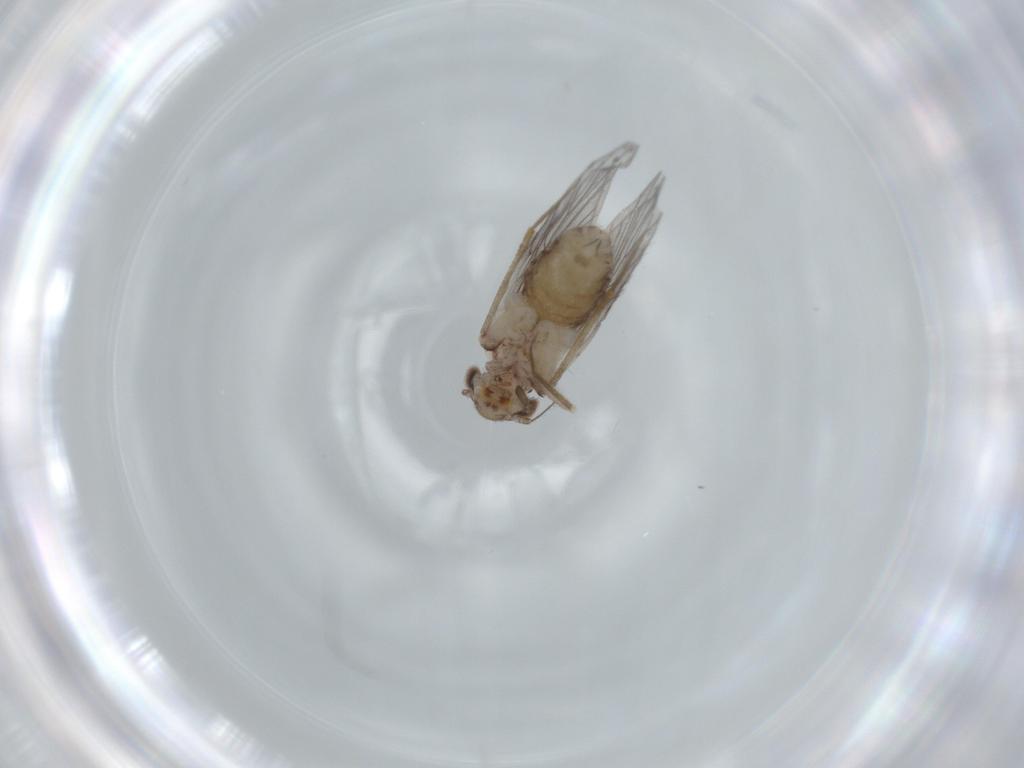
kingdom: Animalia
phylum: Arthropoda
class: Insecta
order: Psocodea
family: Lepidopsocidae
